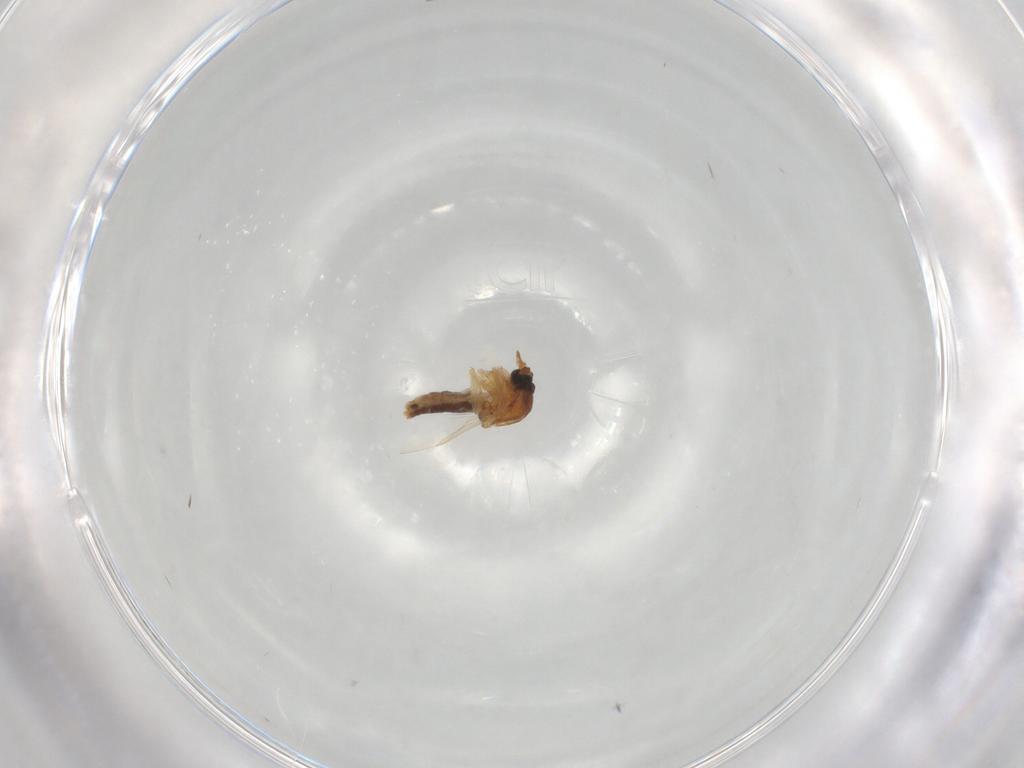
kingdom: Animalia
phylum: Arthropoda
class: Insecta
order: Diptera
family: Ceratopogonidae
